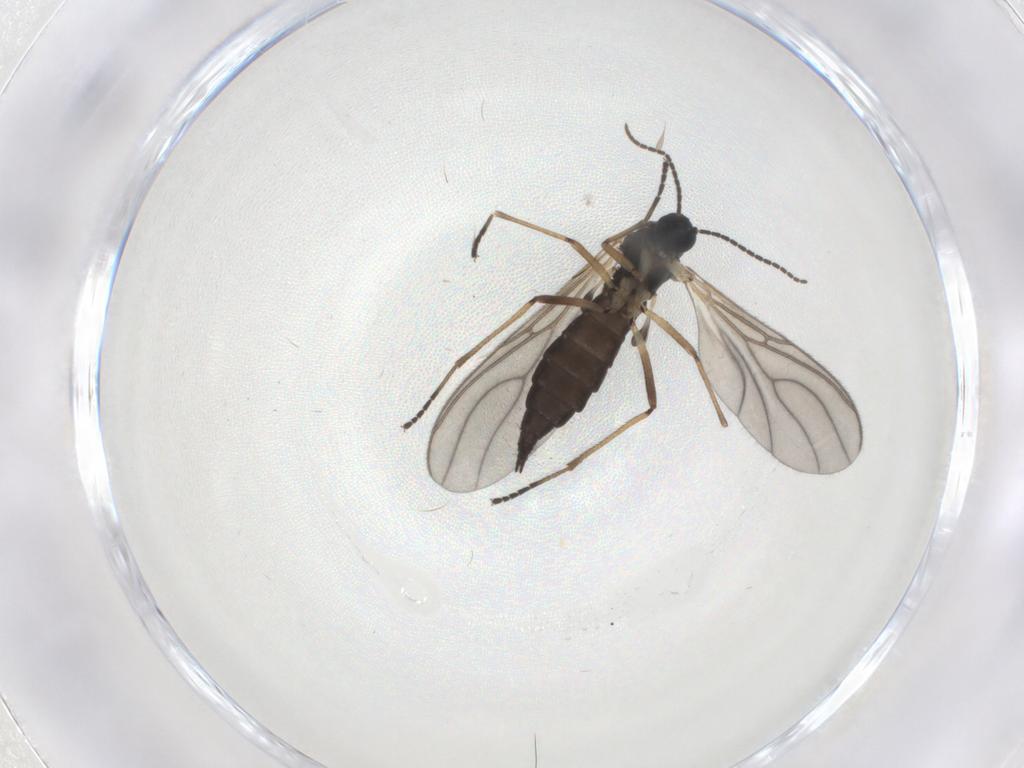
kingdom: Animalia
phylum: Arthropoda
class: Insecta
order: Diptera
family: Sciaridae
